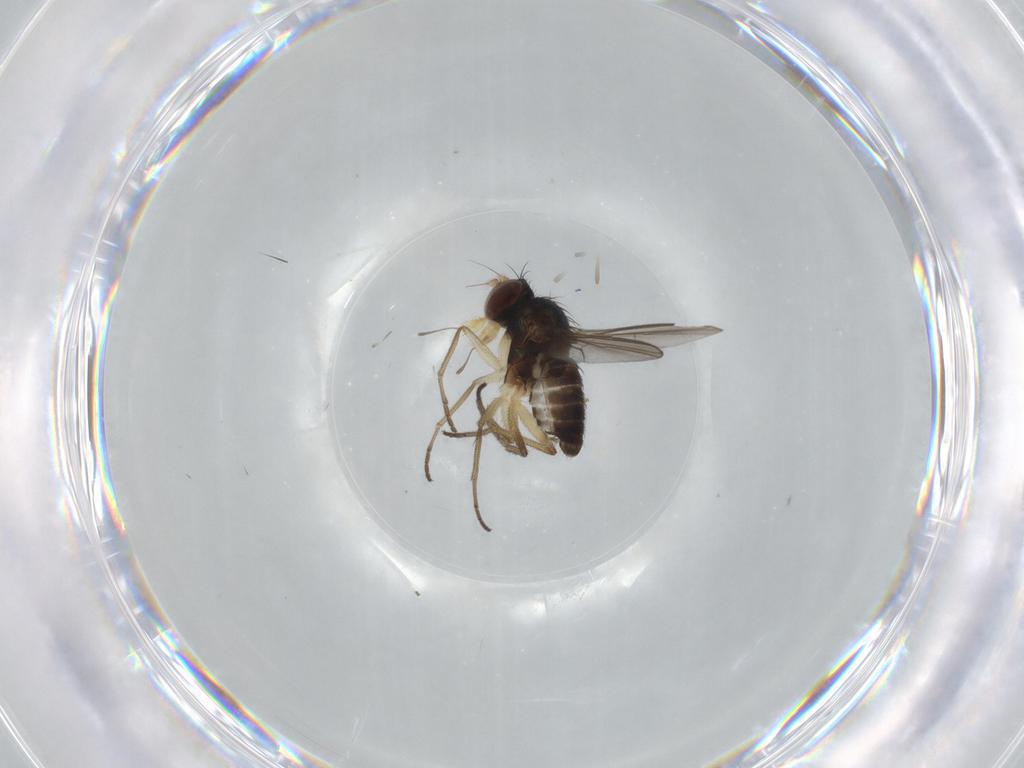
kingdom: Animalia
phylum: Arthropoda
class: Insecta
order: Diptera
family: Dolichopodidae
